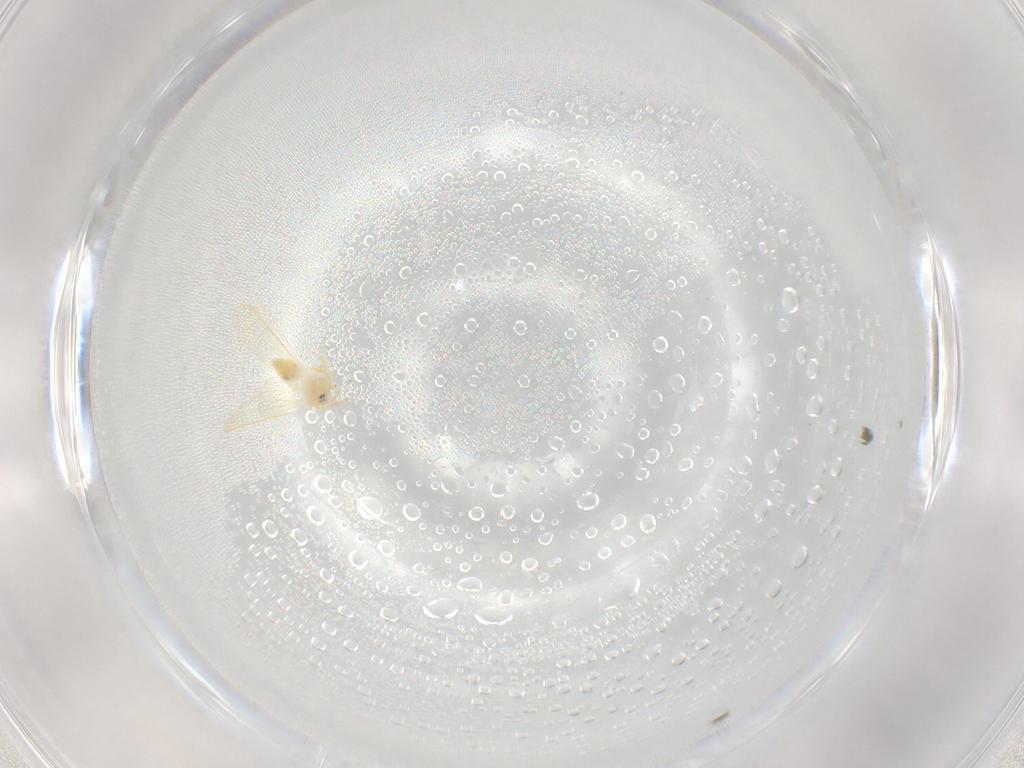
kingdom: Animalia
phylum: Arthropoda
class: Insecta
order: Hemiptera
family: Aleyrodidae
